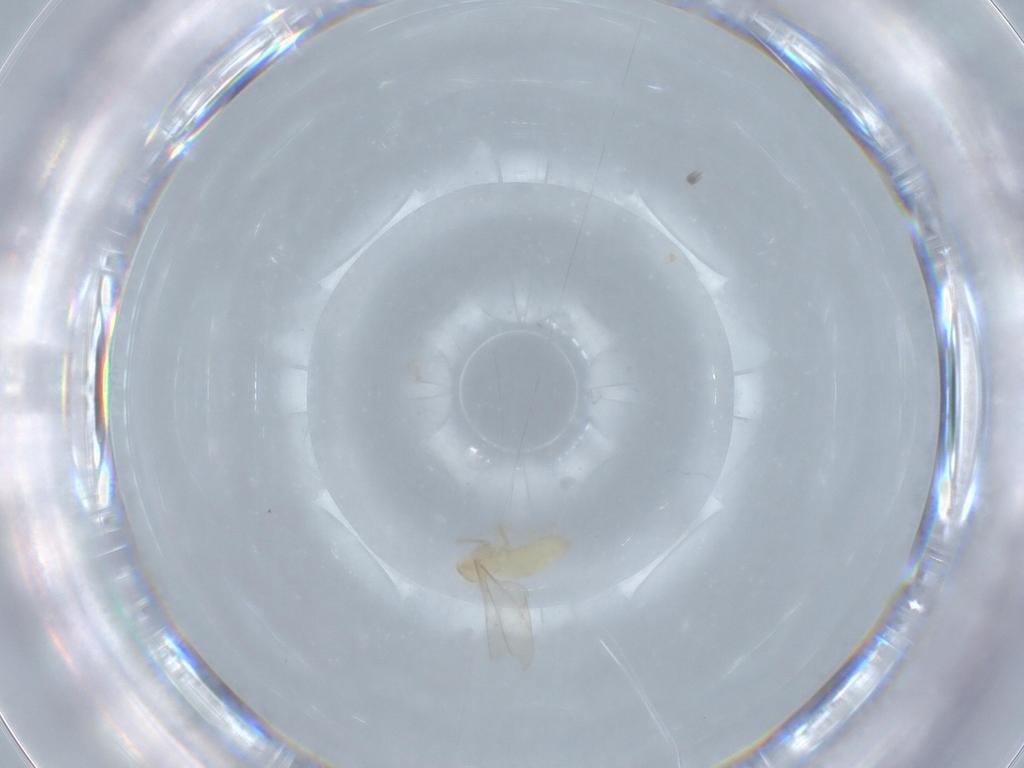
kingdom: Animalia
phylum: Arthropoda
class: Insecta
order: Diptera
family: Cecidomyiidae
